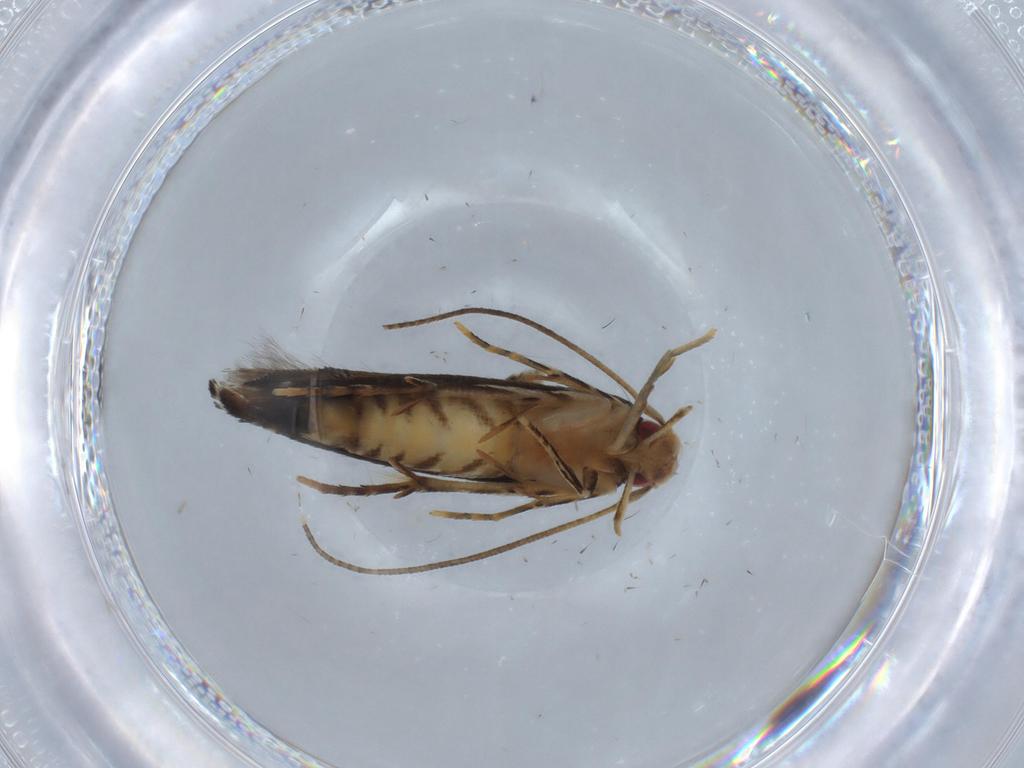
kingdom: Animalia
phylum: Arthropoda
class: Insecta
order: Lepidoptera
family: Momphidae
